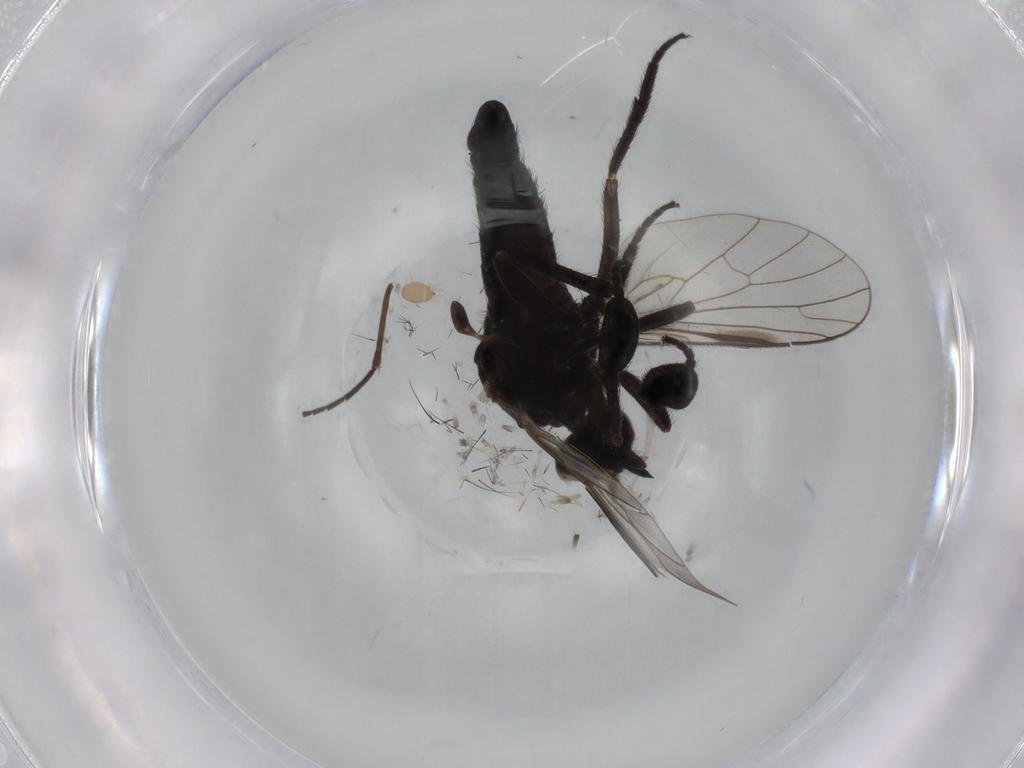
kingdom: Animalia
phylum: Arthropoda
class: Insecta
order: Diptera
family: Empididae
